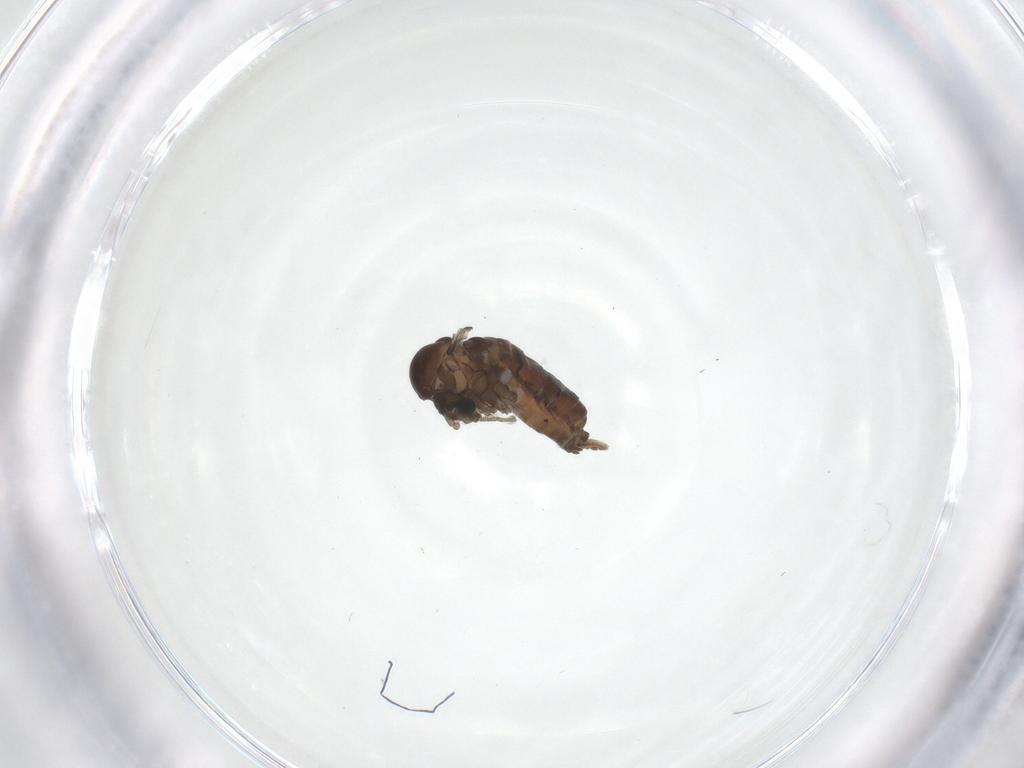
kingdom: Animalia
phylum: Arthropoda
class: Insecta
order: Diptera
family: Psychodidae
